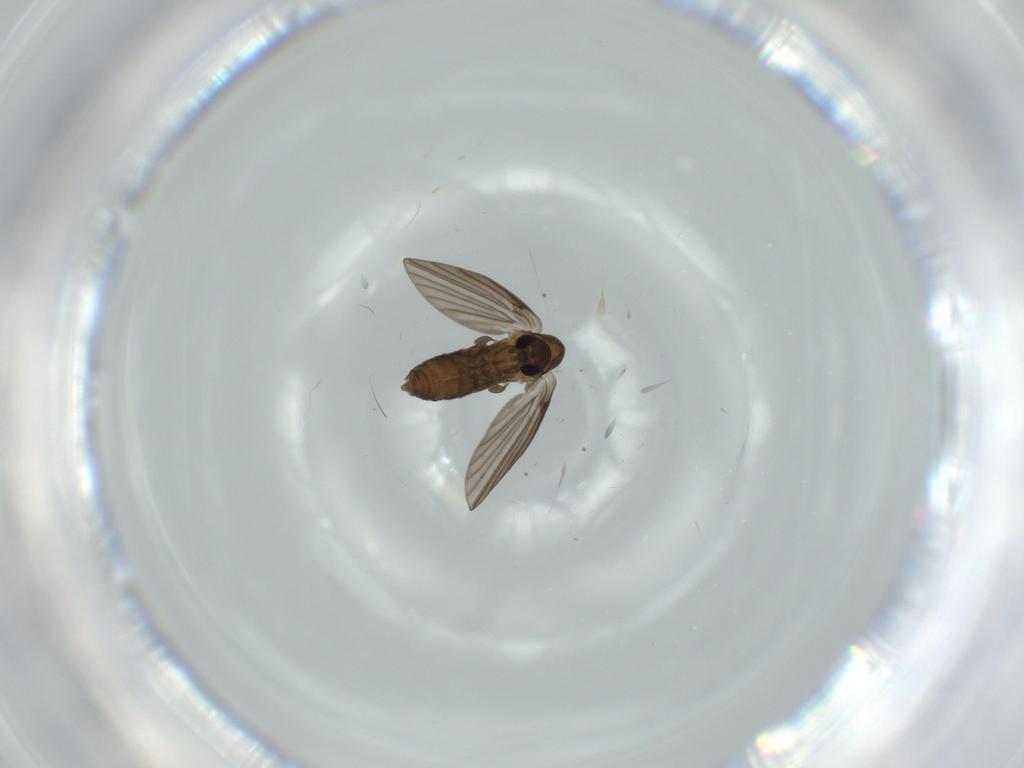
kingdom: Animalia
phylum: Arthropoda
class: Insecta
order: Diptera
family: Psychodidae
